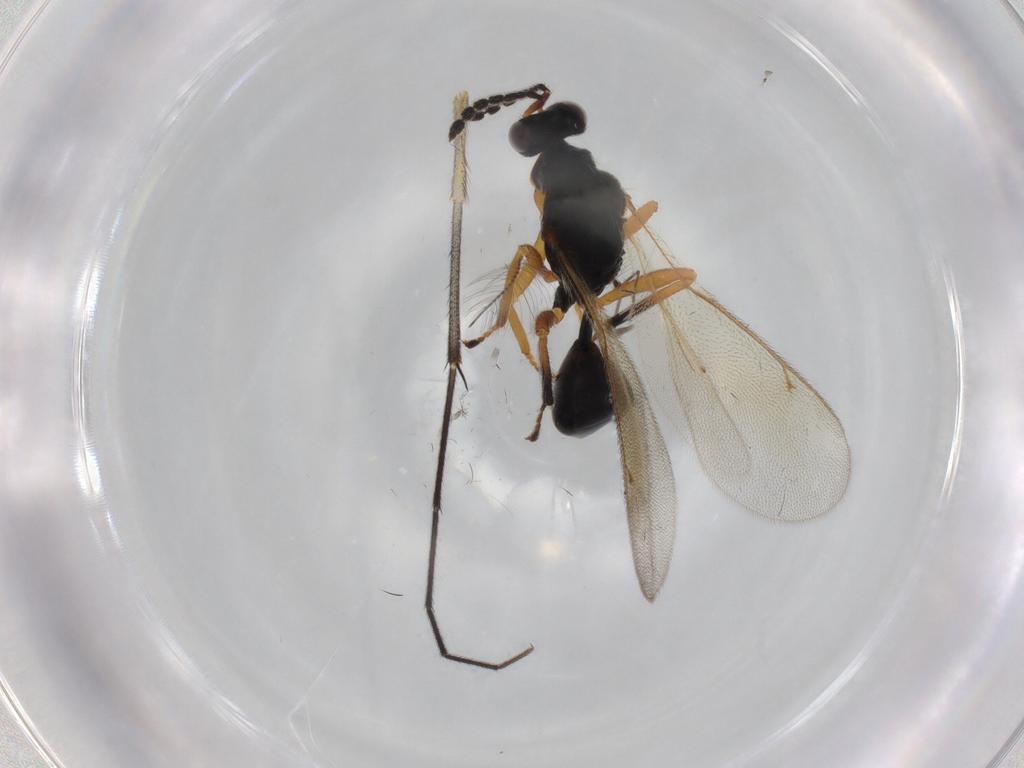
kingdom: Animalia
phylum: Arthropoda
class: Insecta
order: Hymenoptera
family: Eulophidae
